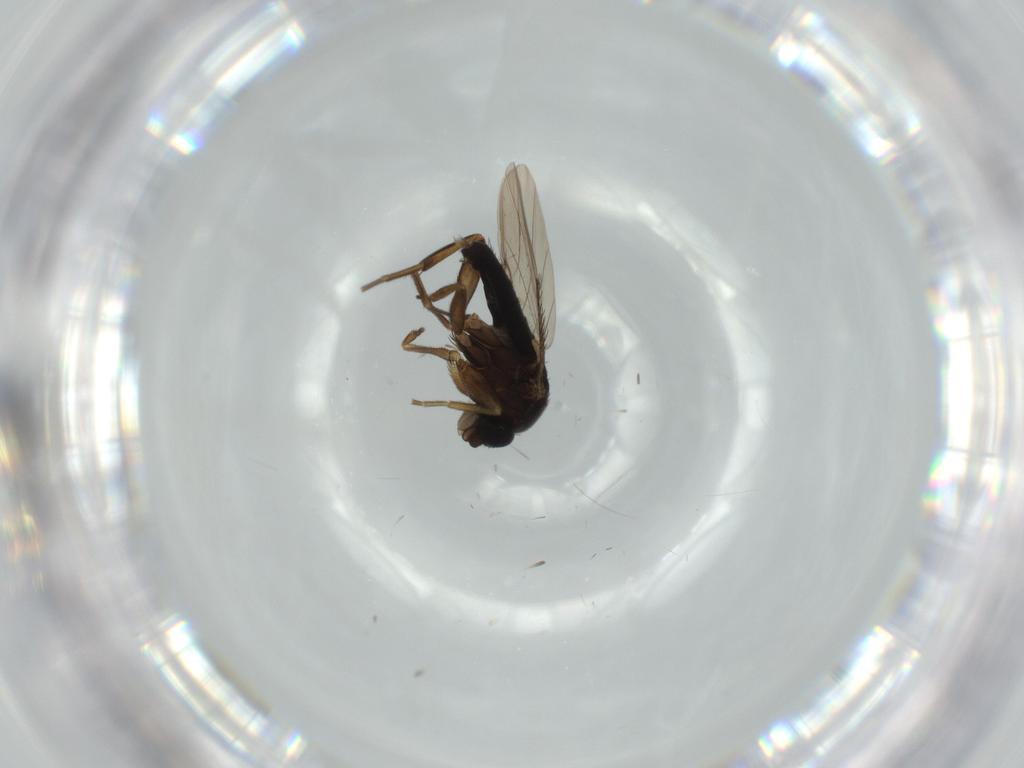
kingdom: Animalia
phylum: Arthropoda
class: Insecta
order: Diptera
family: Phoridae
